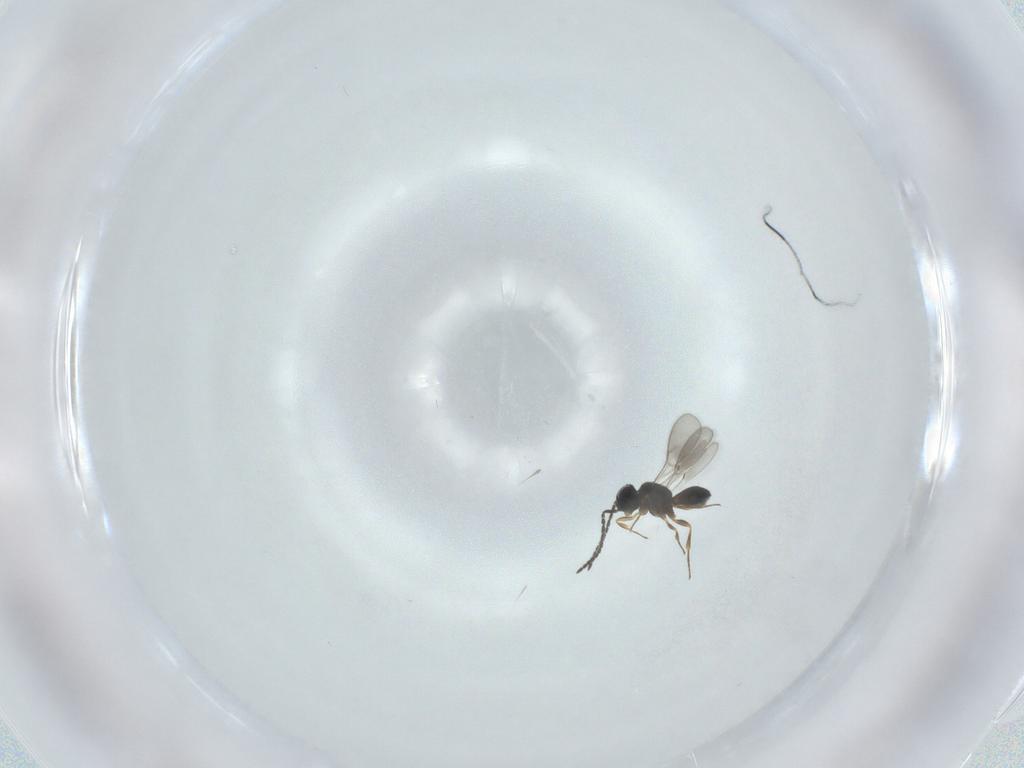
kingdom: Animalia
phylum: Arthropoda
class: Insecta
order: Hymenoptera
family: Scelionidae
